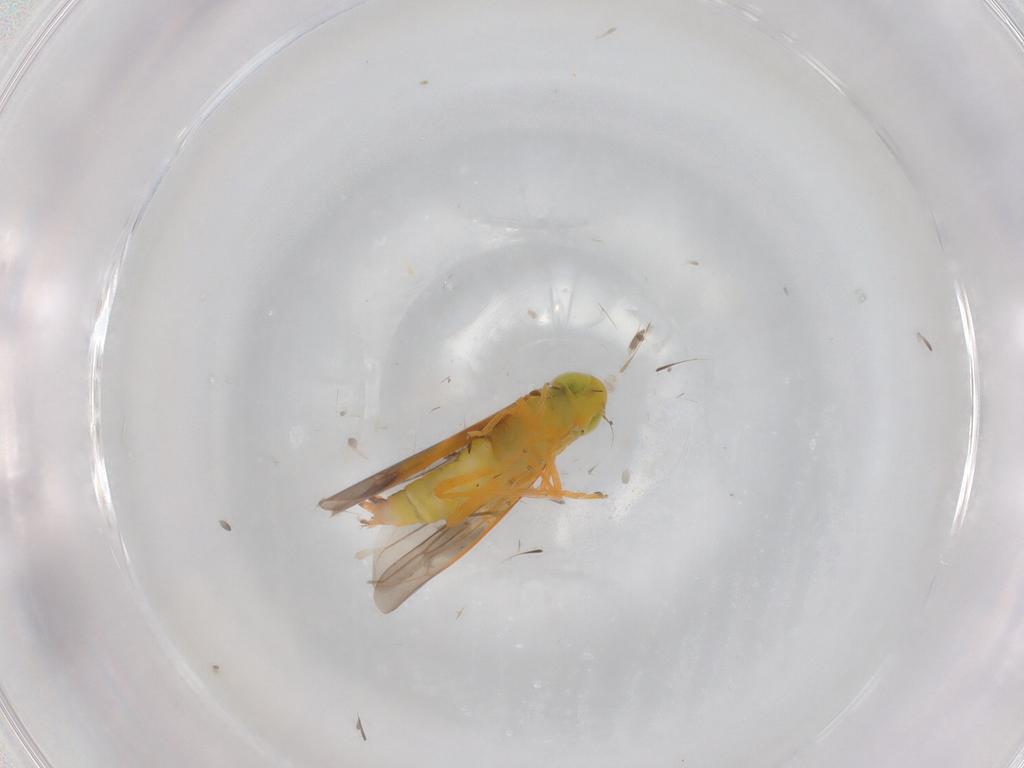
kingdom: Animalia
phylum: Arthropoda
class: Insecta
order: Hemiptera
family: Cicadellidae
